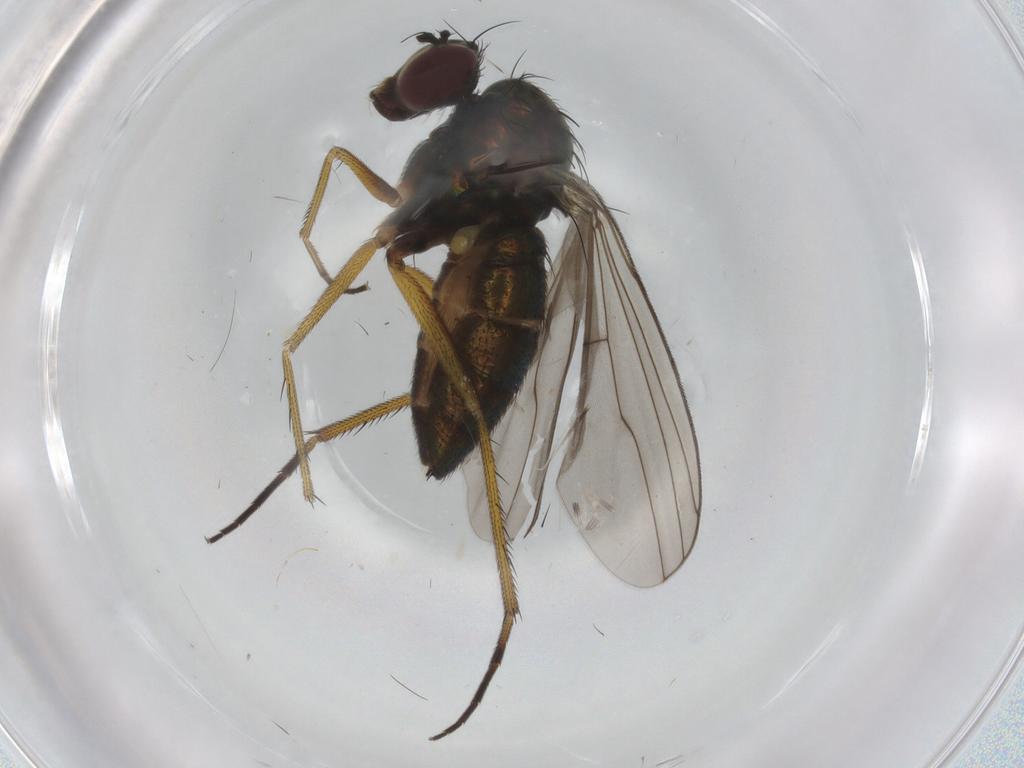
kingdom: Animalia
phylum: Arthropoda
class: Insecta
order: Diptera
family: Dolichopodidae
